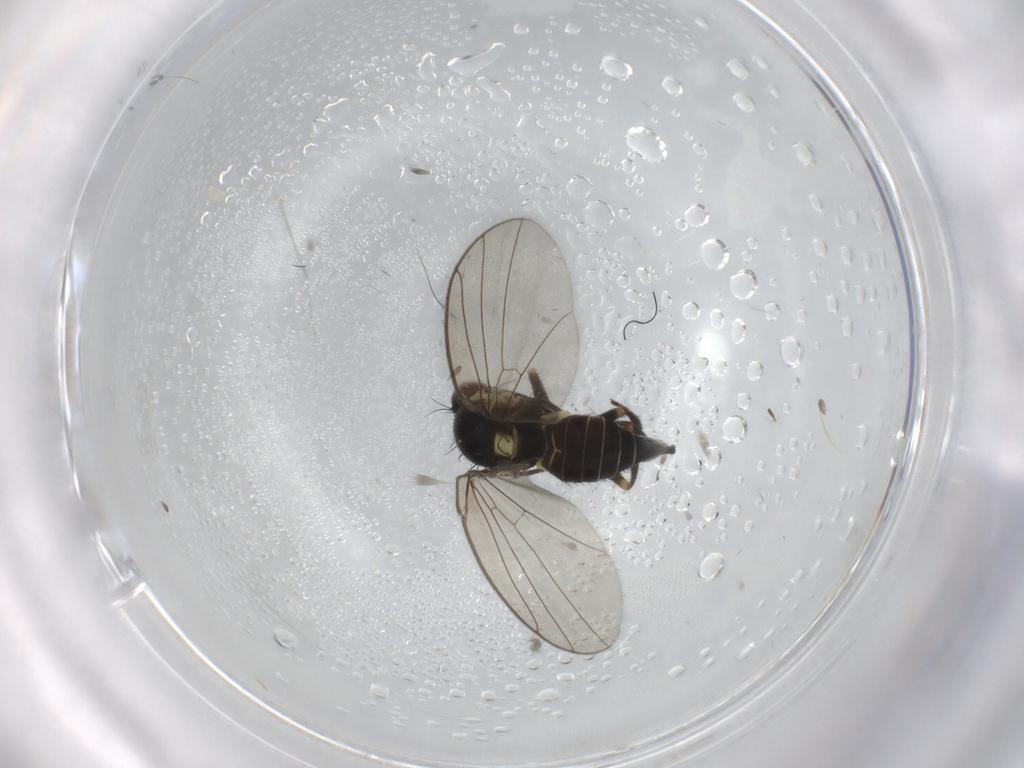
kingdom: Animalia
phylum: Arthropoda
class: Insecta
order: Diptera
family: Agromyzidae
